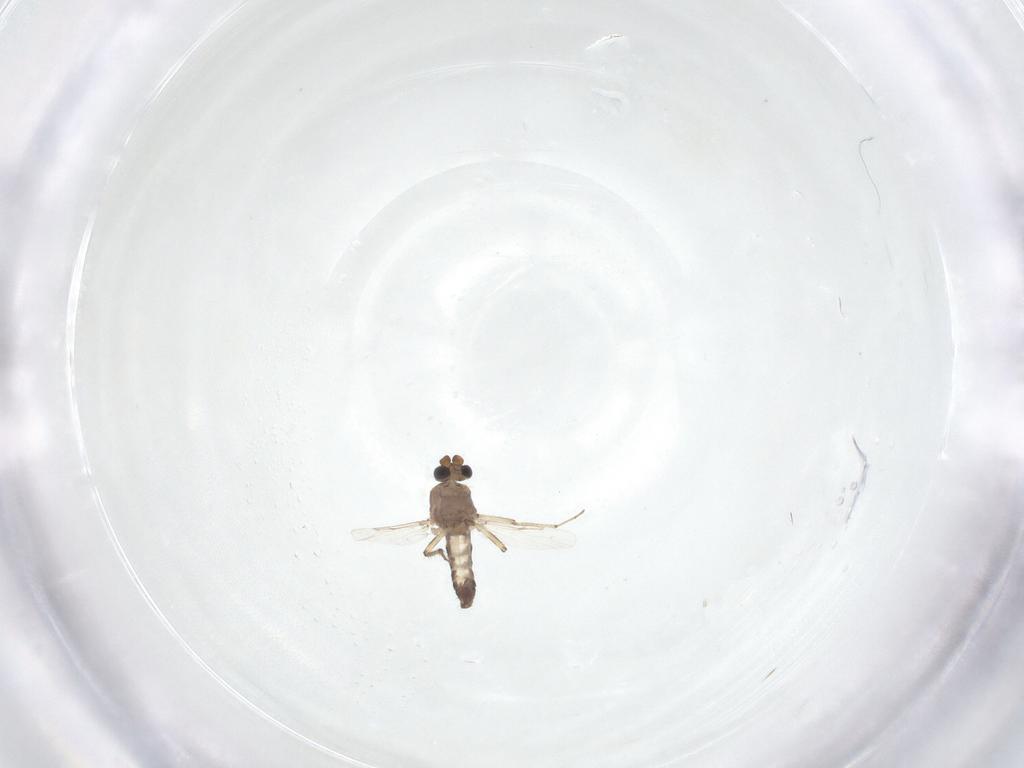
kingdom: Animalia
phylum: Arthropoda
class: Insecta
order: Diptera
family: Ceratopogonidae
